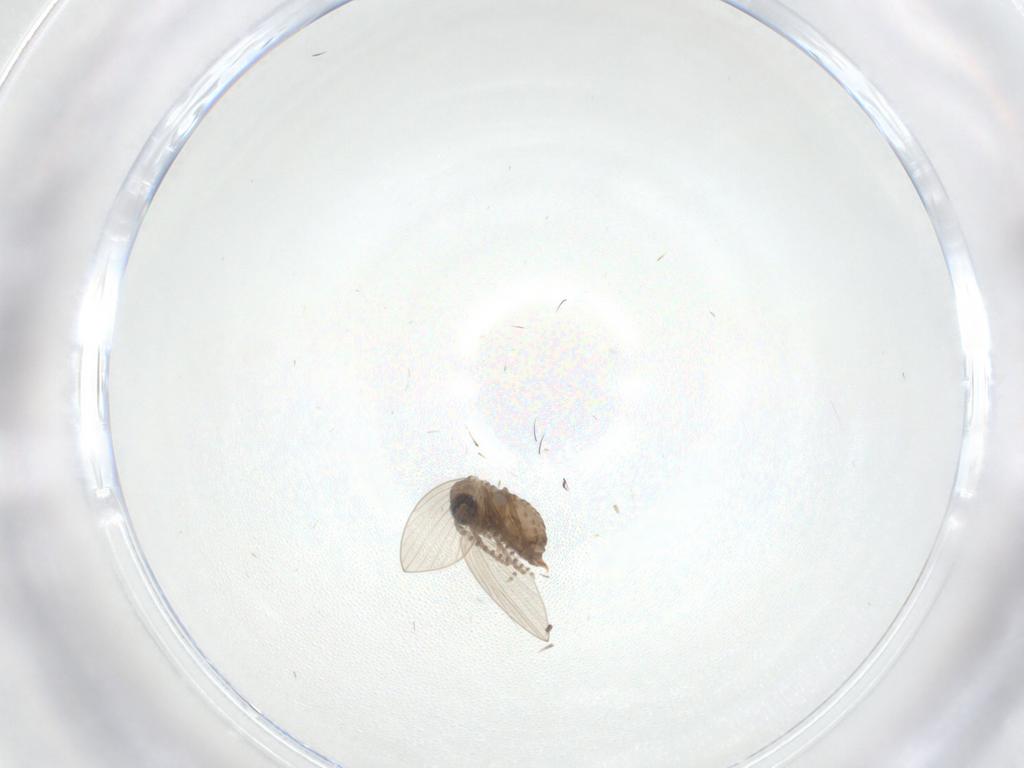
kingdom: Animalia
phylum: Arthropoda
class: Insecta
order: Diptera
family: Psychodidae
